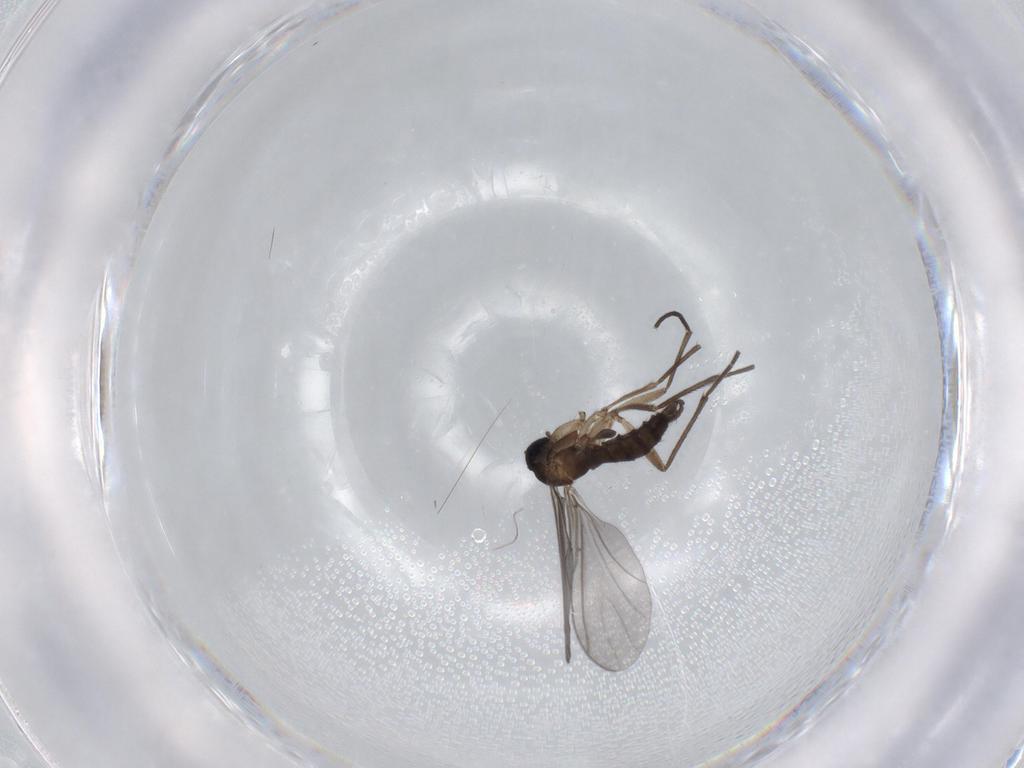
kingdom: Animalia
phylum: Arthropoda
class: Insecta
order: Diptera
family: Sciaridae
